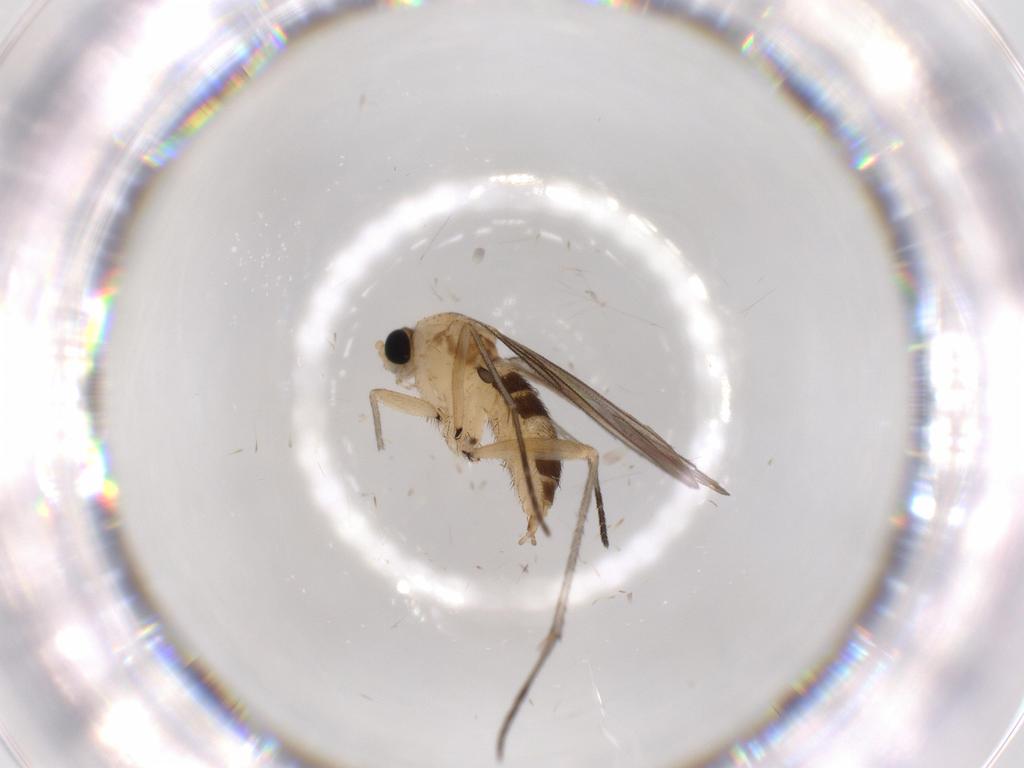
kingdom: Animalia
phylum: Arthropoda
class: Insecta
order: Diptera
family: Sciaridae
